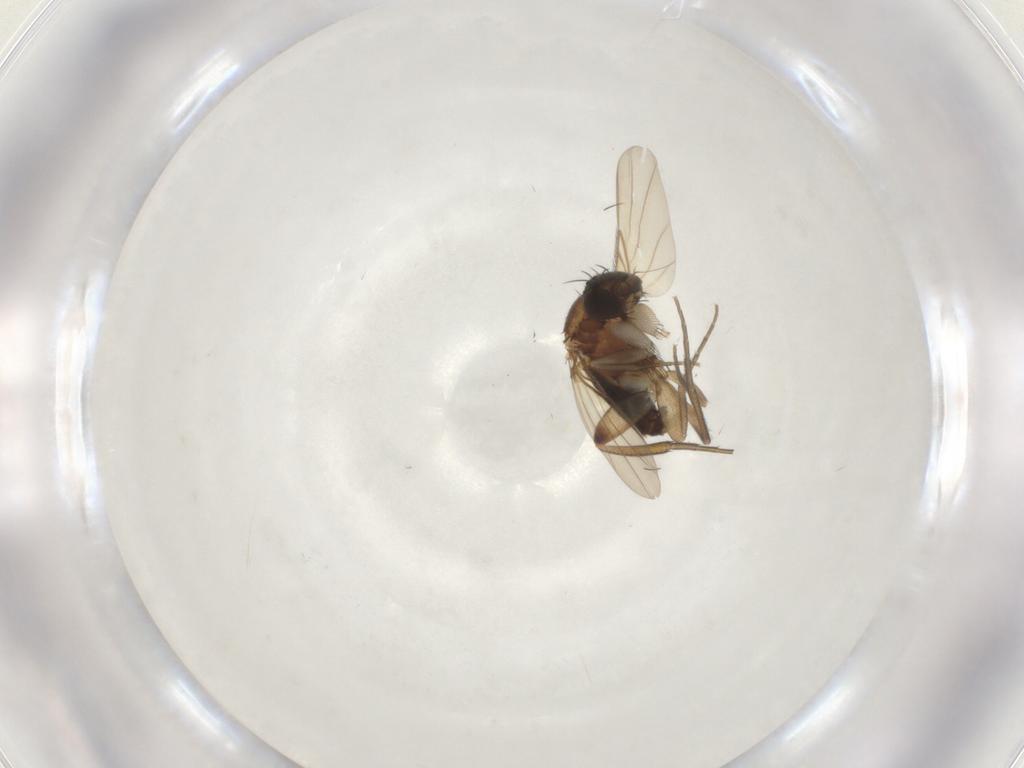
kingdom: Animalia
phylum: Arthropoda
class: Insecta
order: Diptera
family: Phoridae
